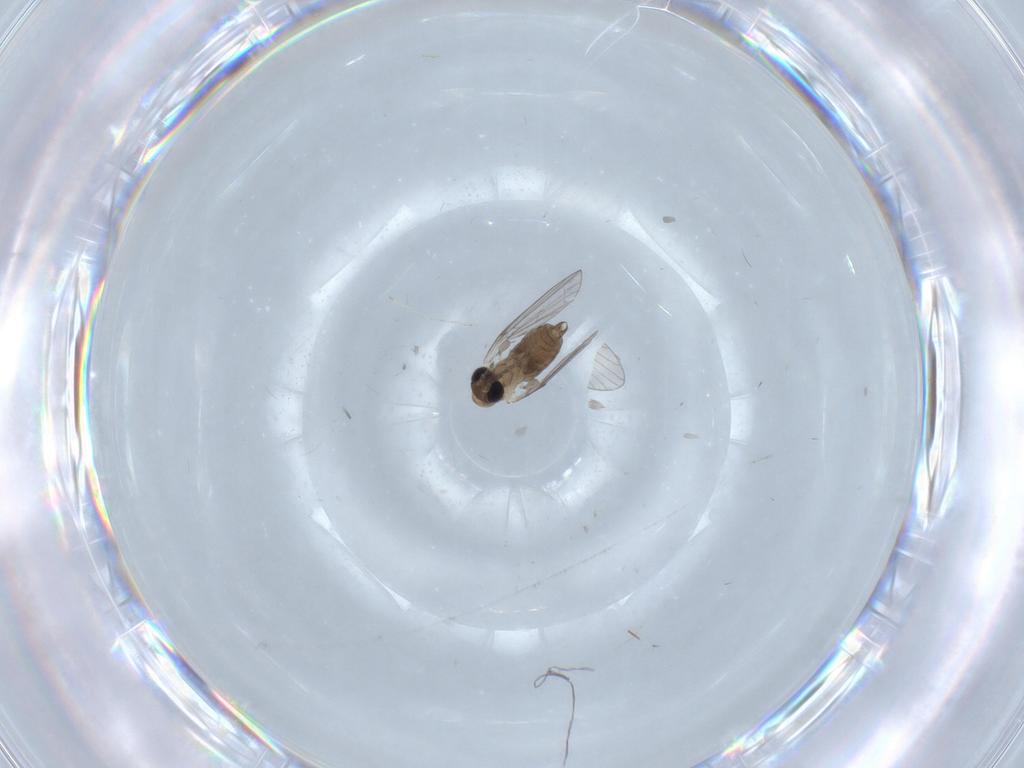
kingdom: Animalia
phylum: Arthropoda
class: Insecta
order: Diptera
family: Psychodidae
